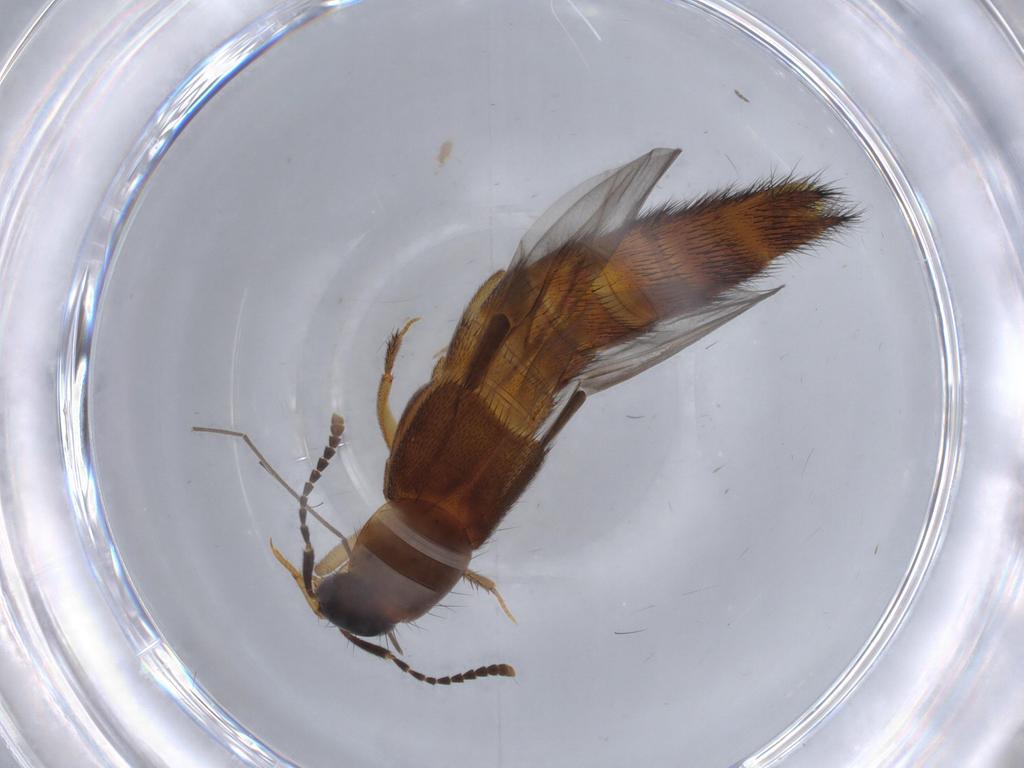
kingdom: Animalia
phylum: Arthropoda
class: Insecta
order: Coleoptera
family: Staphylinidae
